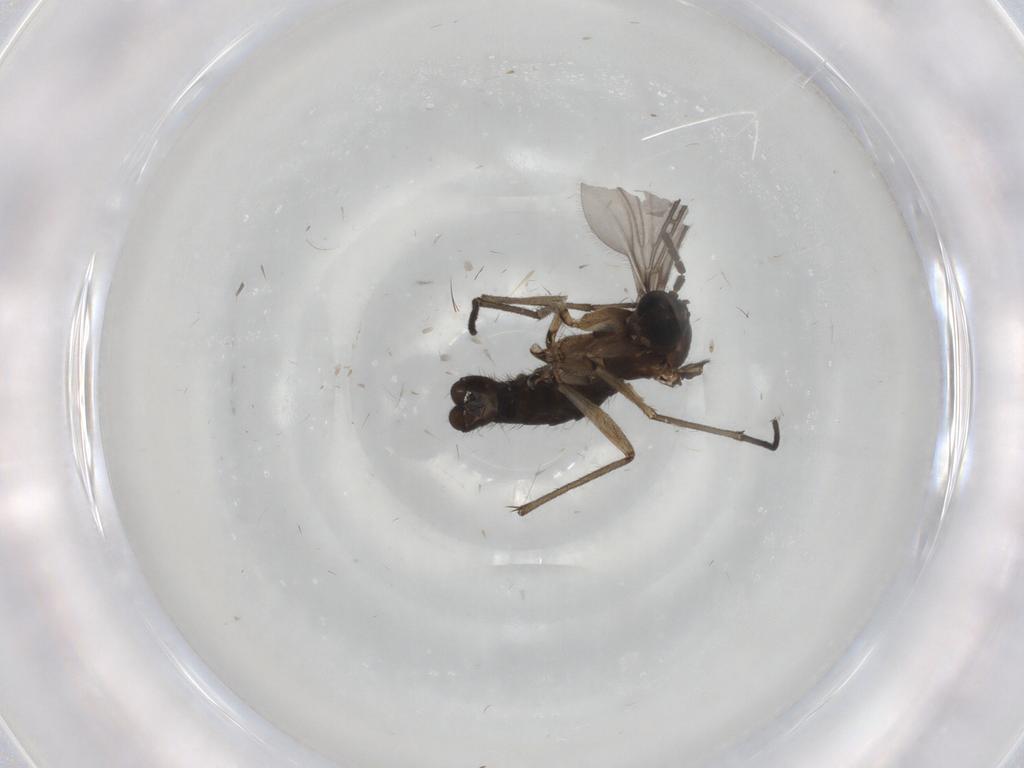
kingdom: Animalia
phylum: Arthropoda
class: Insecta
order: Diptera
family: Sciaridae
